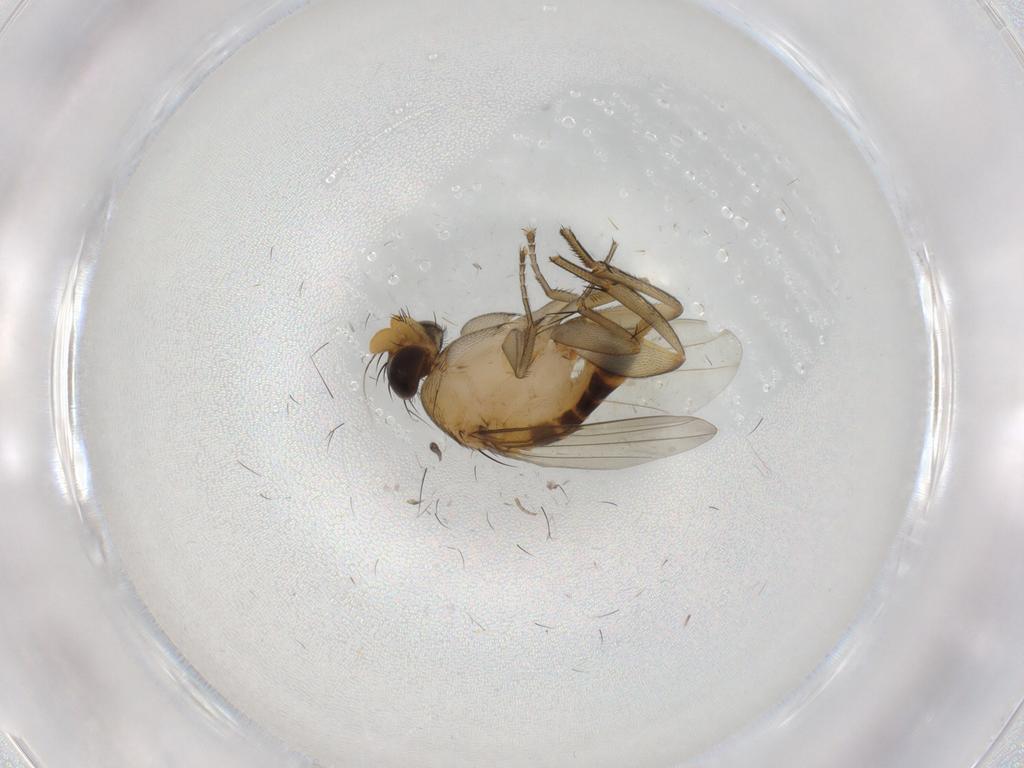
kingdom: Animalia
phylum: Arthropoda
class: Insecta
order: Diptera
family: Phoridae
